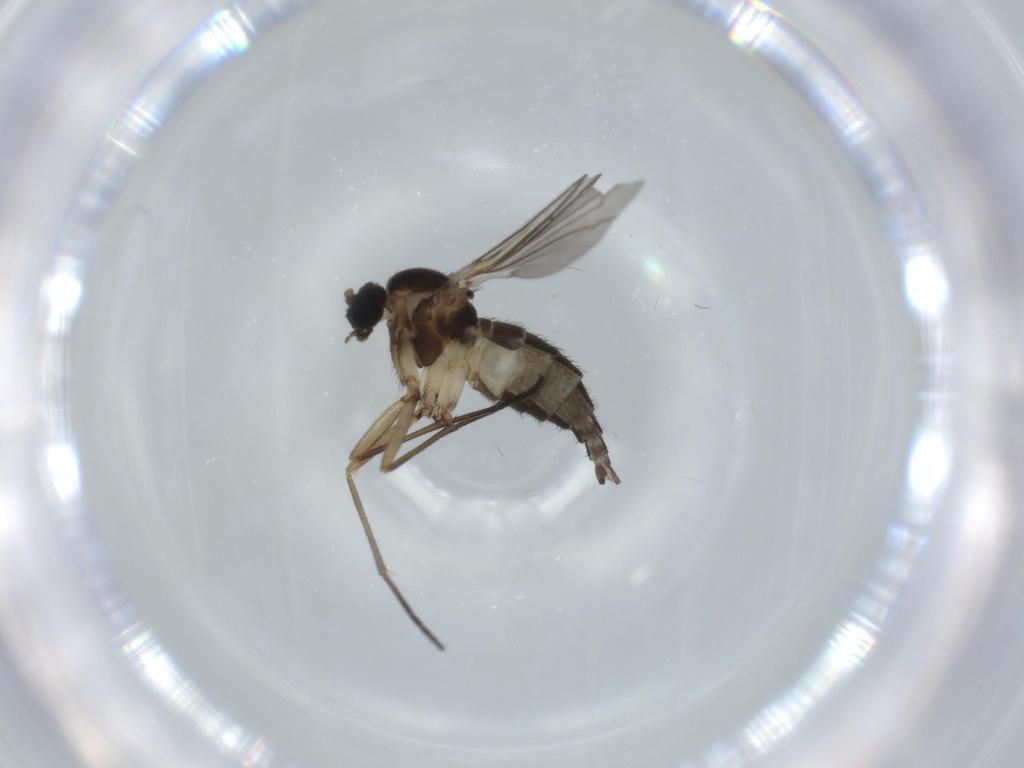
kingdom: Animalia
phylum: Arthropoda
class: Insecta
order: Diptera
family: Sciaridae
